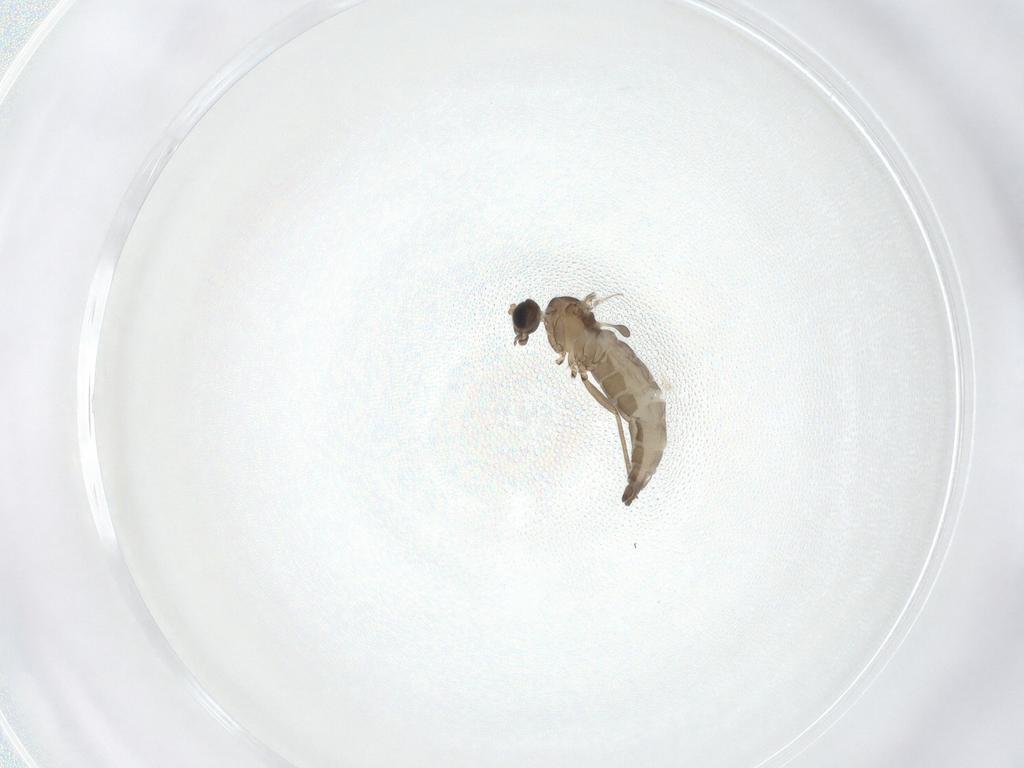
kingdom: Animalia
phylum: Arthropoda
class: Insecta
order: Diptera
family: Sciaridae
